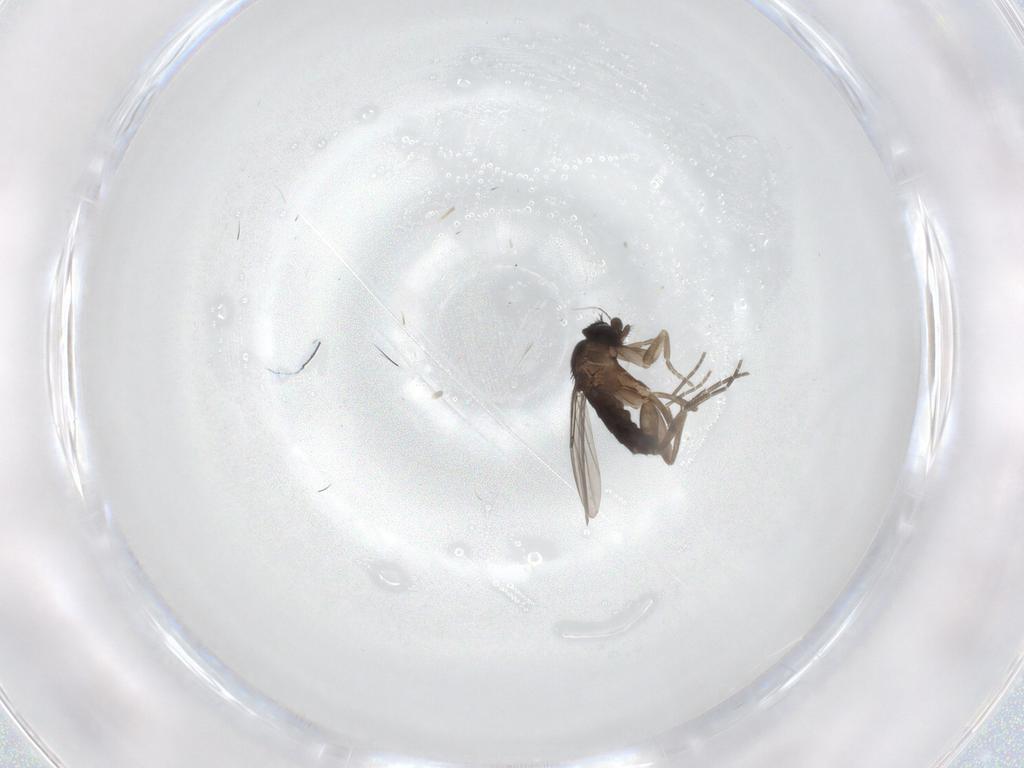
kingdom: Animalia
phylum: Arthropoda
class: Insecta
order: Diptera
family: Phoridae
